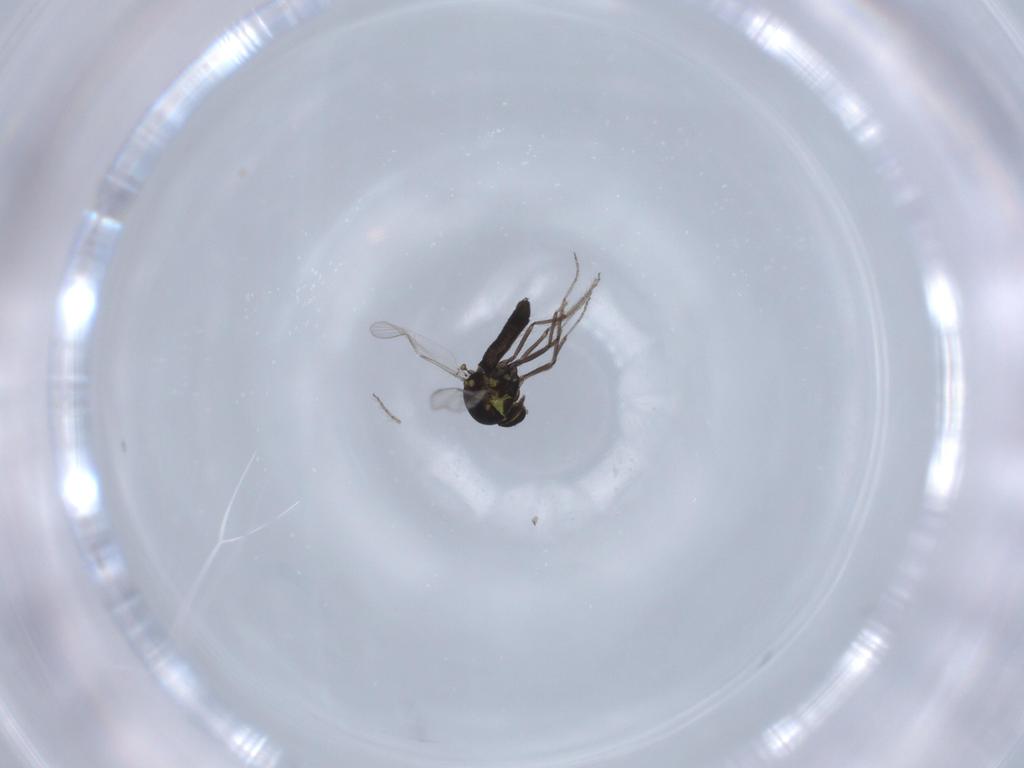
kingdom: Animalia
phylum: Arthropoda
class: Insecta
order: Diptera
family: Ceratopogonidae
